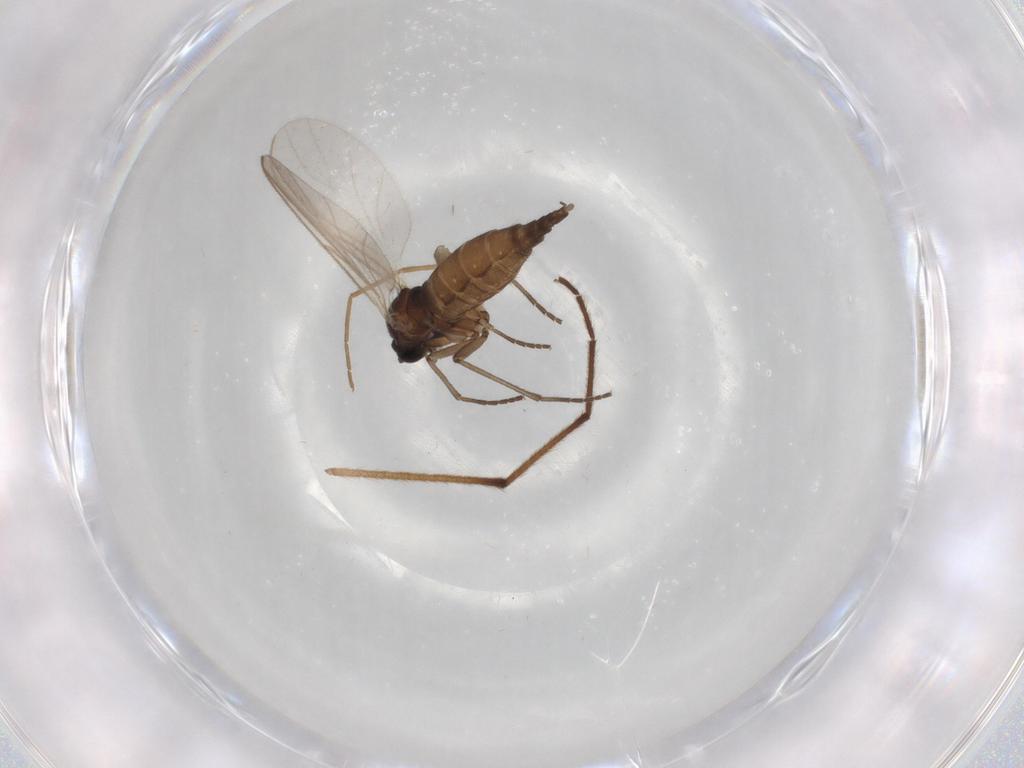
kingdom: Animalia
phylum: Arthropoda
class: Insecta
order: Diptera
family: Sciaridae
